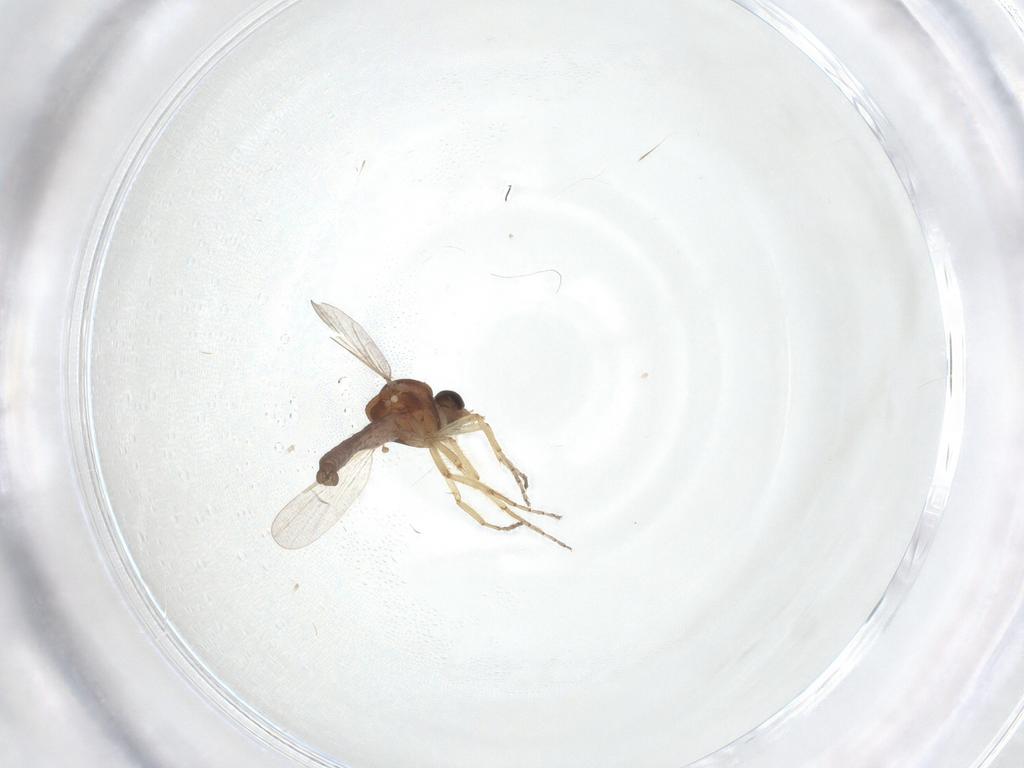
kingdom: Animalia
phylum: Arthropoda
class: Insecta
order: Diptera
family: Ceratopogonidae
